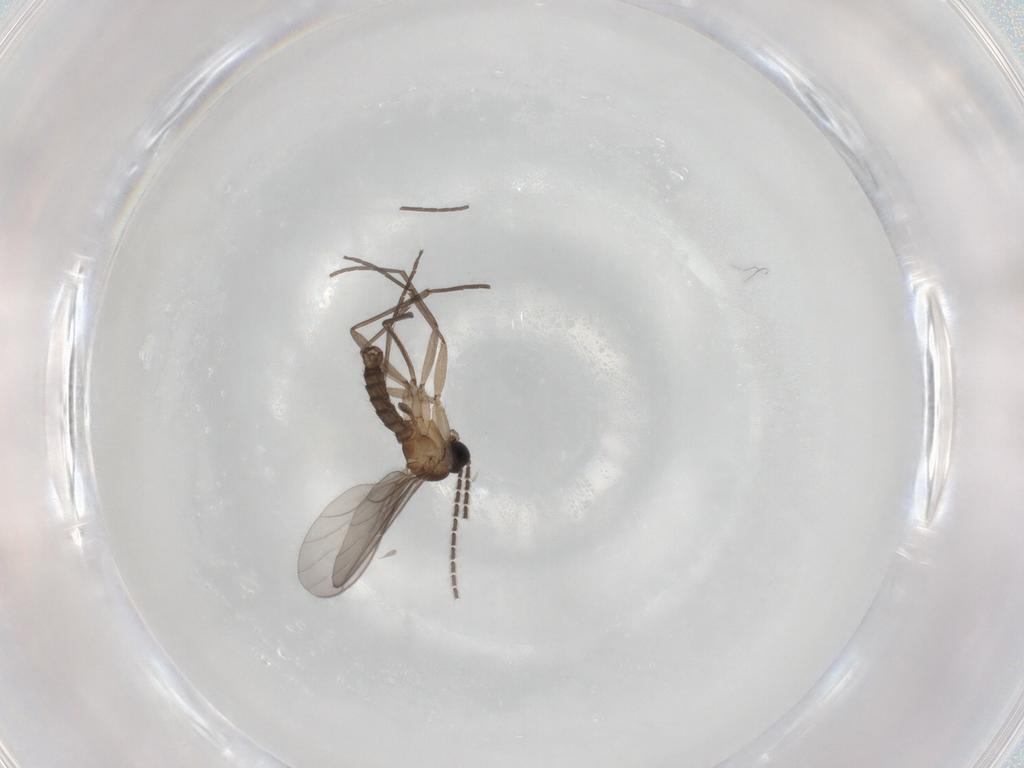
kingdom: Animalia
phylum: Arthropoda
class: Insecta
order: Diptera
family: Sciaridae
